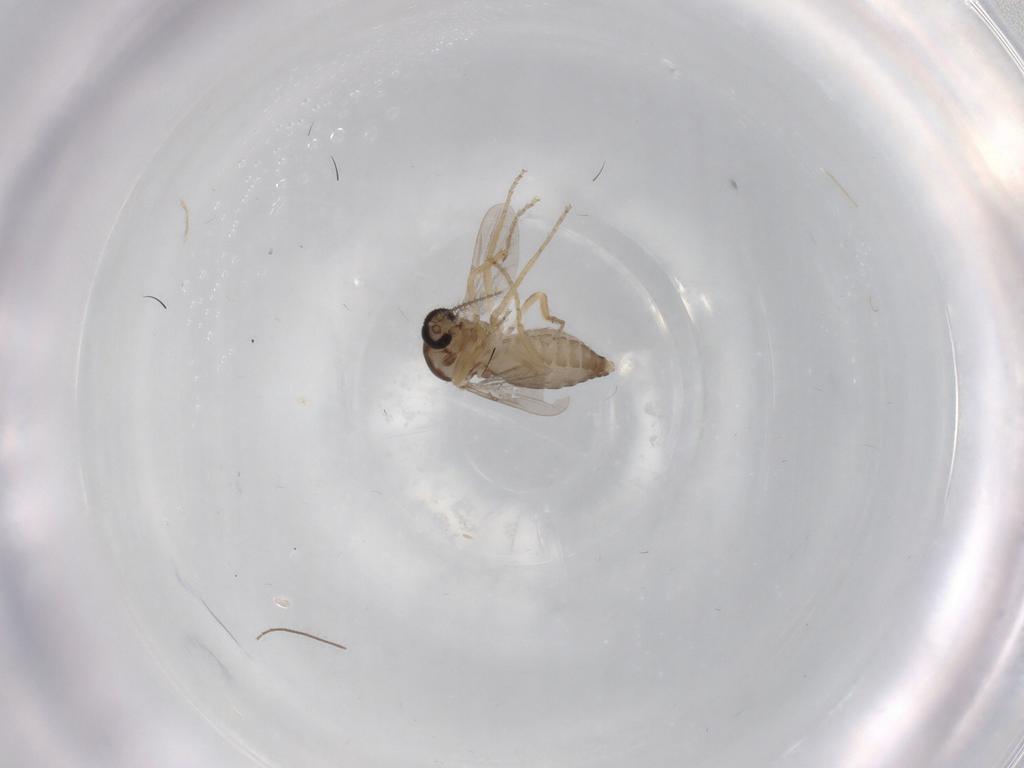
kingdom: Animalia
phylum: Arthropoda
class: Insecta
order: Diptera
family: Ceratopogonidae
